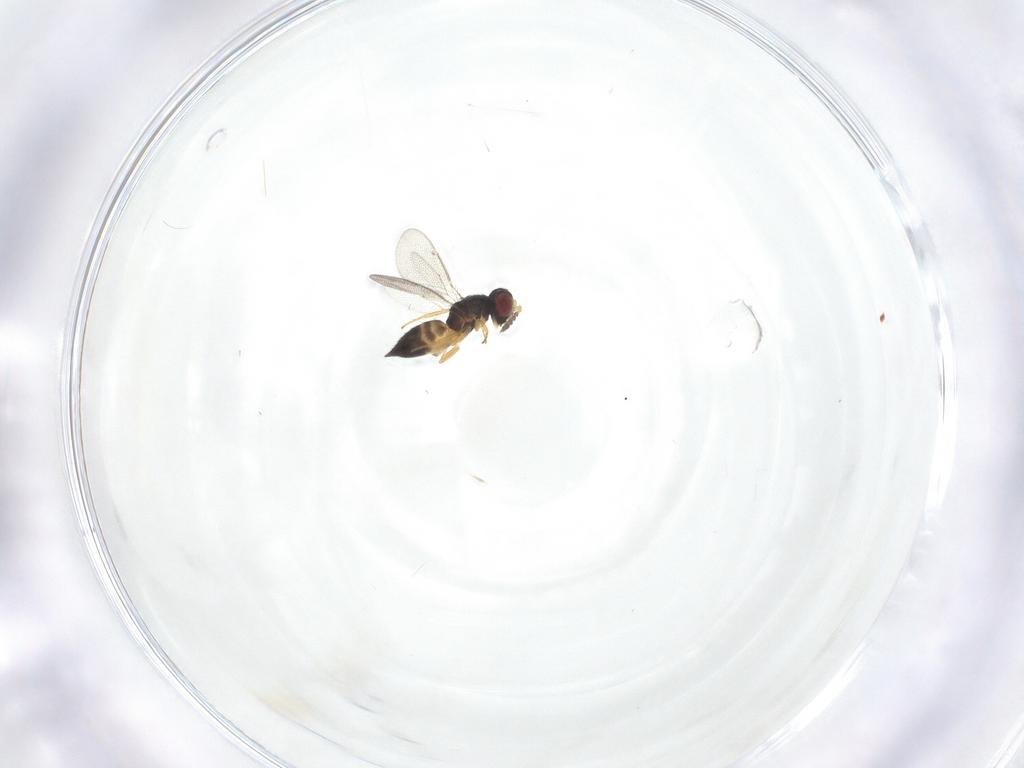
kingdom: Animalia
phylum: Arthropoda
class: Insecta
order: Hymenoptera
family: Eulophidae
